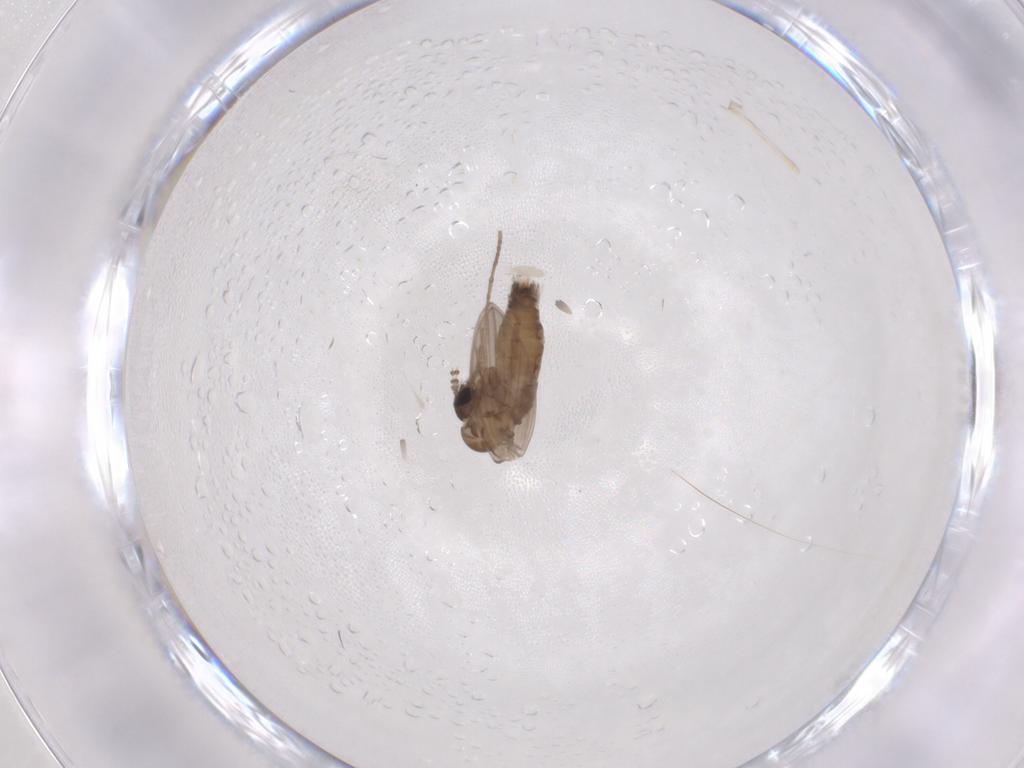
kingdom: Animalia
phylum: Arthropoda
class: Insecta
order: Diptera
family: Psychodidae
